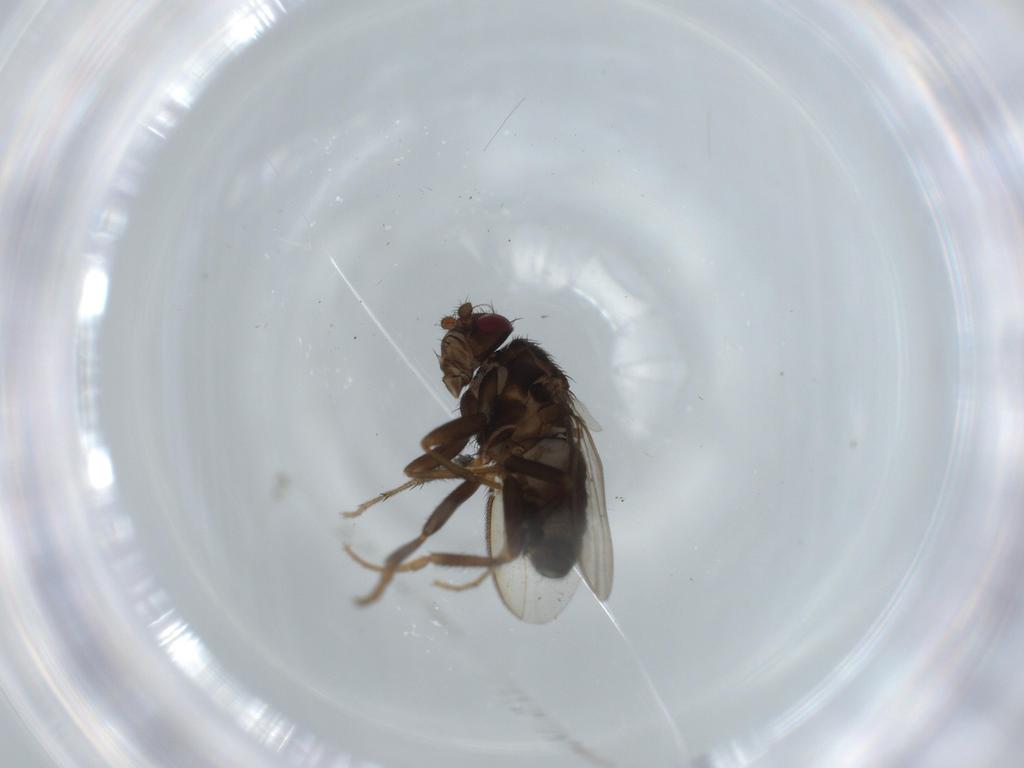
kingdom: Animalia
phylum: Arthropoda
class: Insecta
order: Diptera
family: Sphaeroceridae
